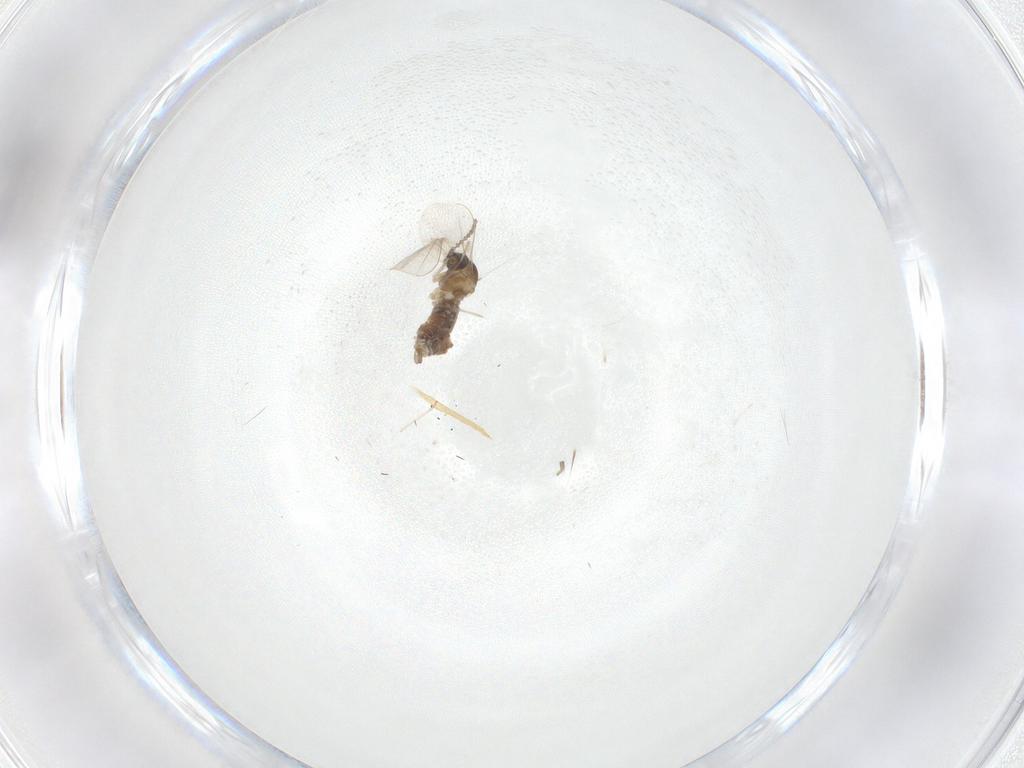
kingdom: Animalia
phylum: Arthropoda
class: Insecta
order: Diptera
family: Cecidomyiidae
